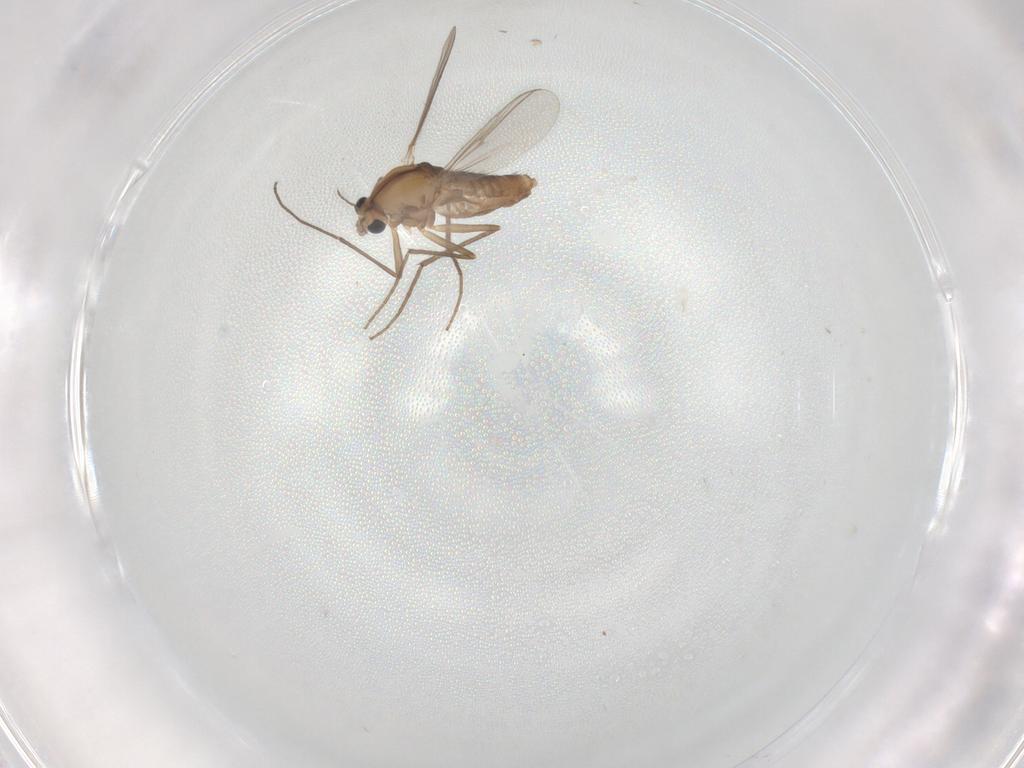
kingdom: Animalia
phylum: Arthropoda
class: Insecta
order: Diptera
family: Chironomidae
